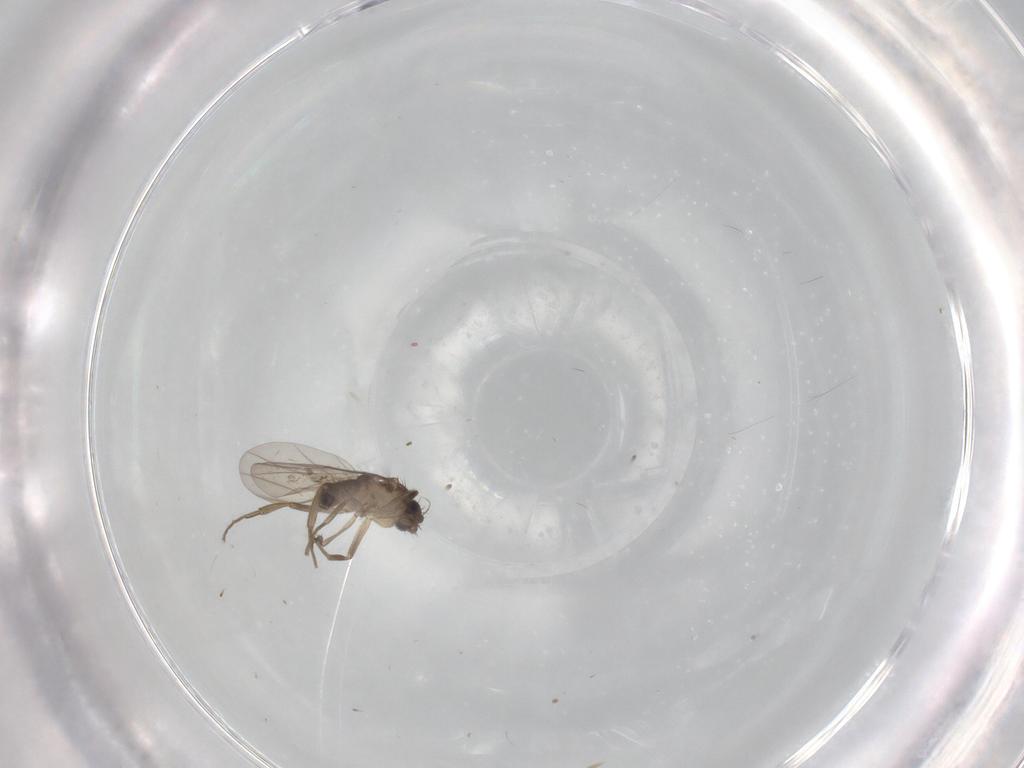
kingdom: Animalia
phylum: Arthropoda
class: Insecta
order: Diptera
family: Phoridae
